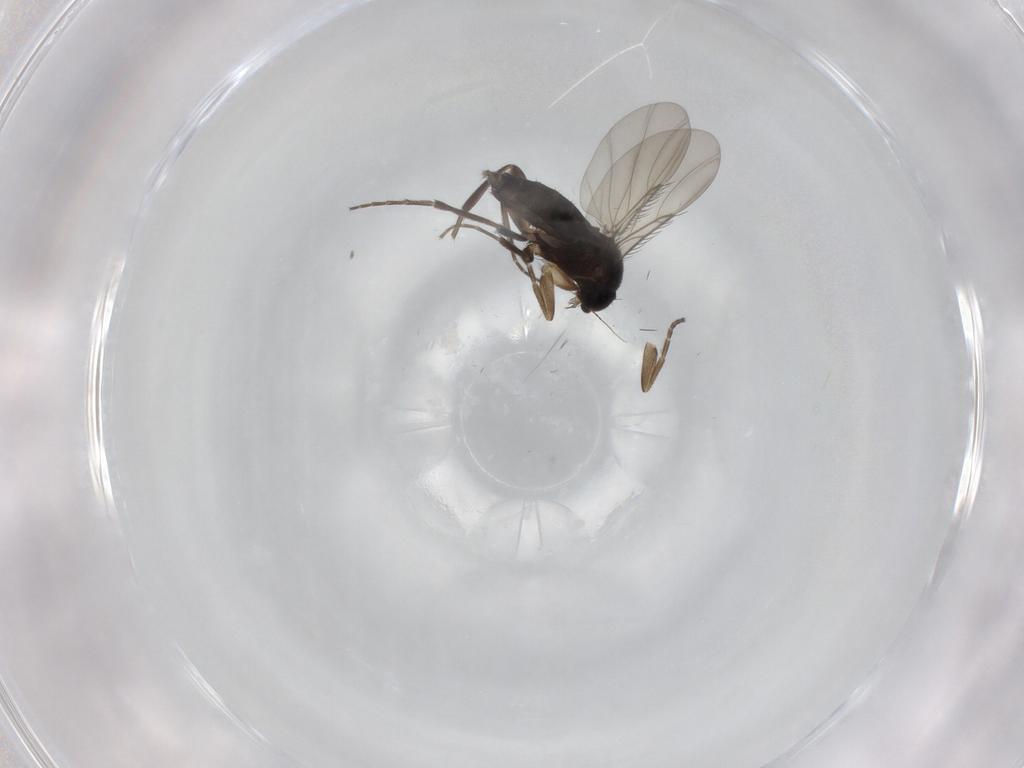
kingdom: Animalia
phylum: Arthropoda
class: Insecta
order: Diptera
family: Phoridae
